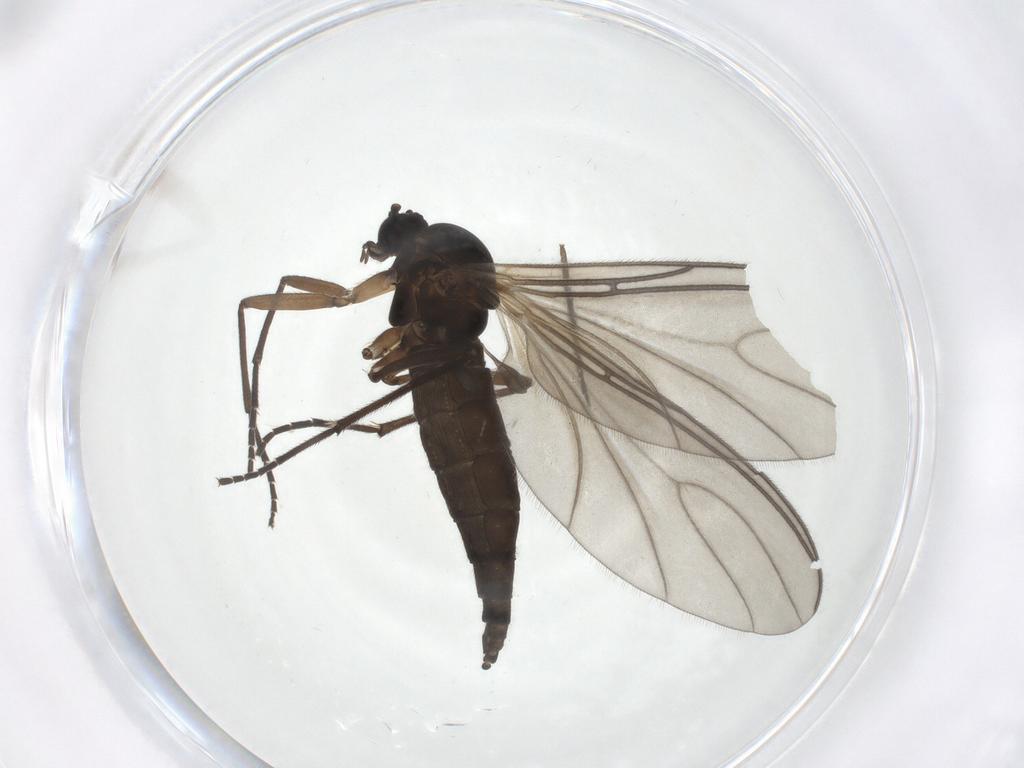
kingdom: Animalia
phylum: Arthropoda
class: Insecta
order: Diptera
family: Sciaridae
